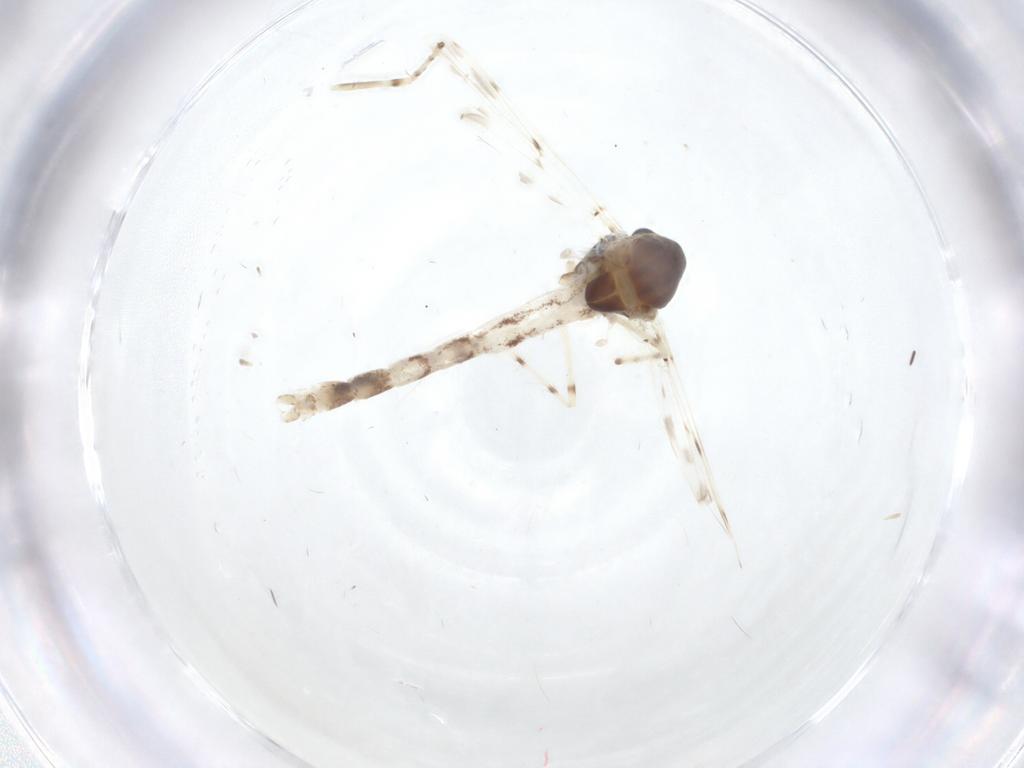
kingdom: Animalia
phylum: Arthropoda
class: Insecta
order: Diptera
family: Chironomidae
